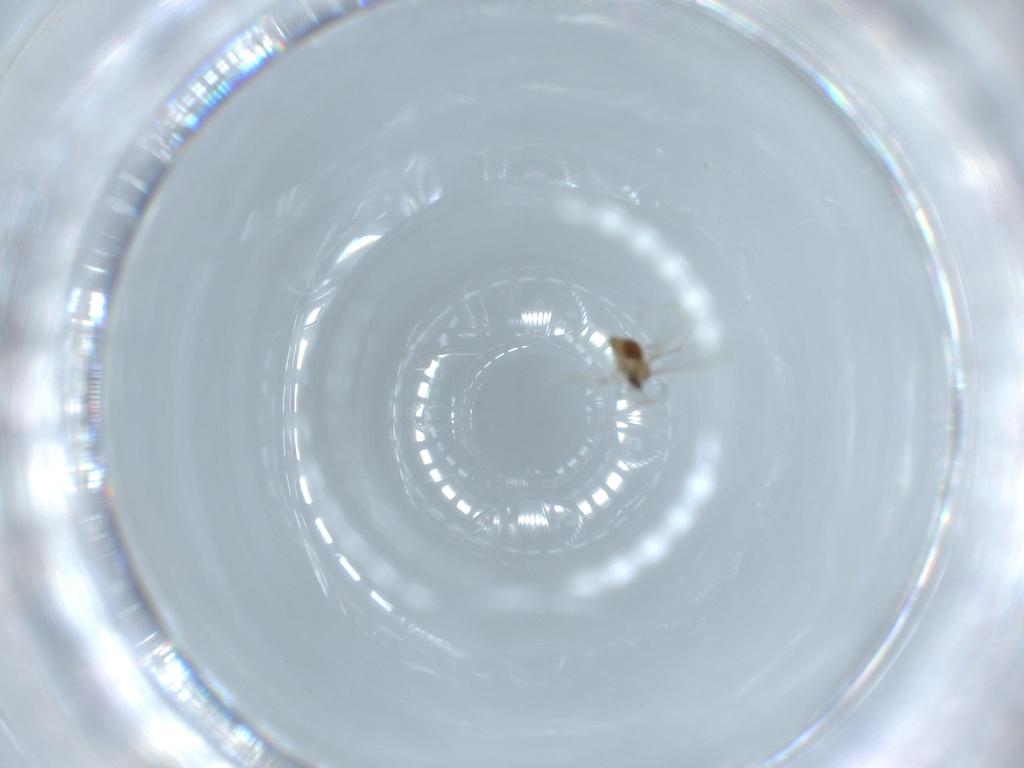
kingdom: Animalia
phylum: Arthropoda
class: Insecta
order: Diptera
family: Cecidomyiidae
